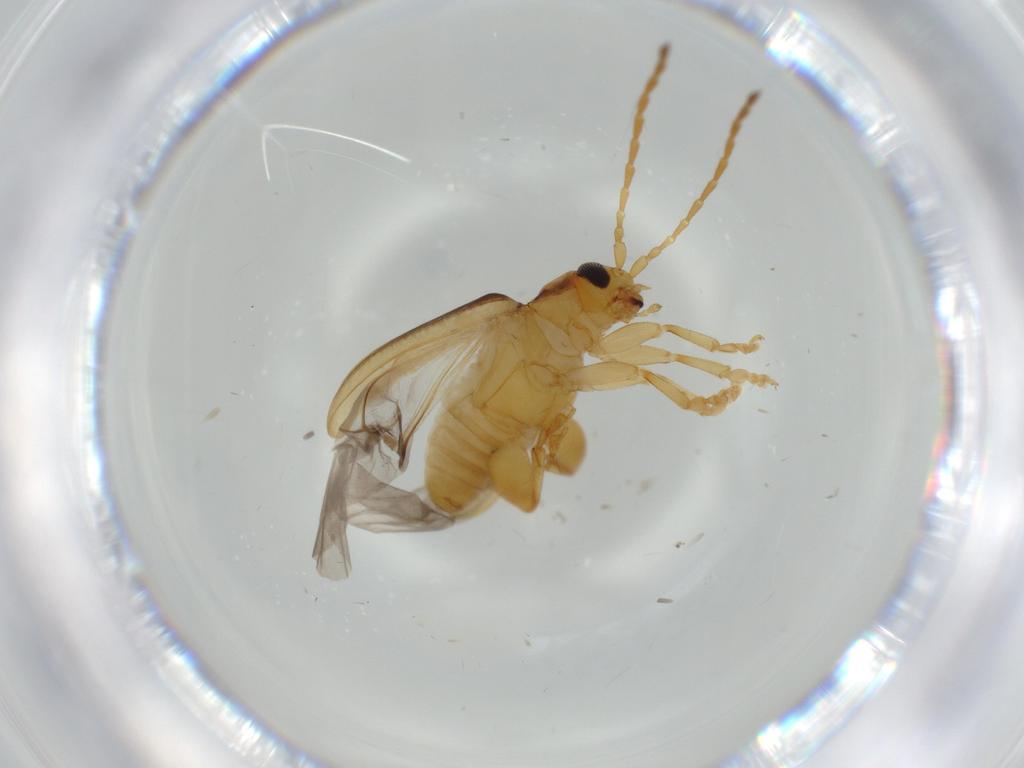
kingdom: Animalia
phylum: Arthropoda
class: Insecta
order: Coleoptera
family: Chrysomelidae
